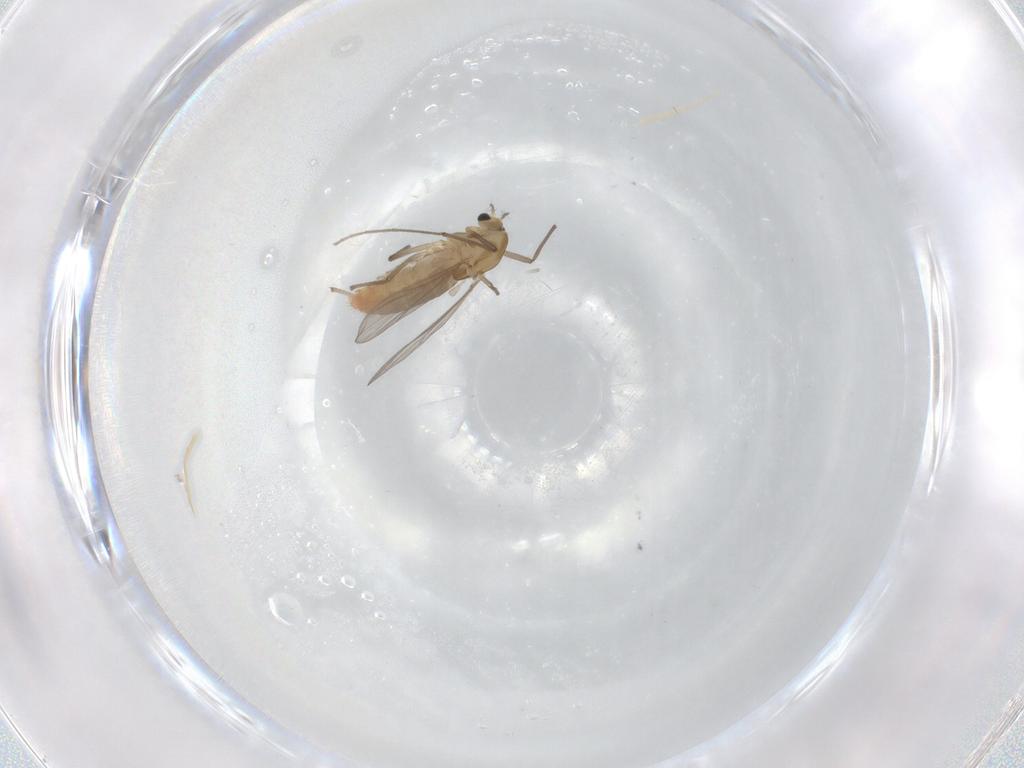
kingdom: Animalia
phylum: Arthropoda
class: Insecta
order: Diptera
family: Chironomidae
